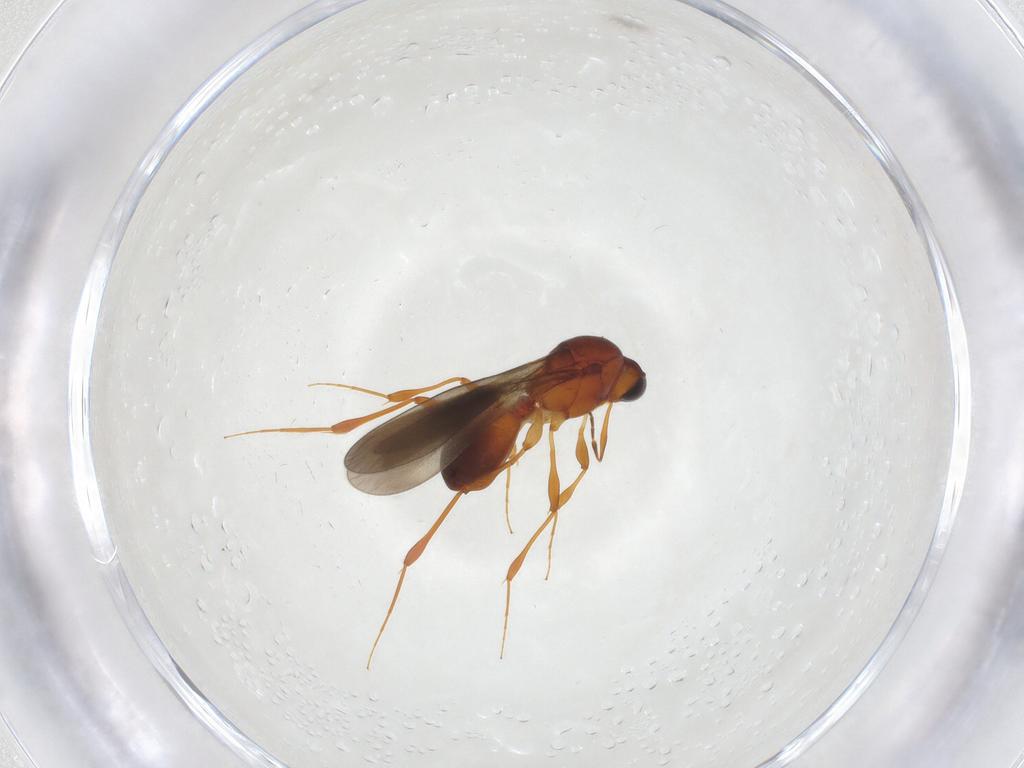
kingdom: Animalia
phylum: Arthropoda
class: Insecta
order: Hymenoptera
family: Platygastridae
